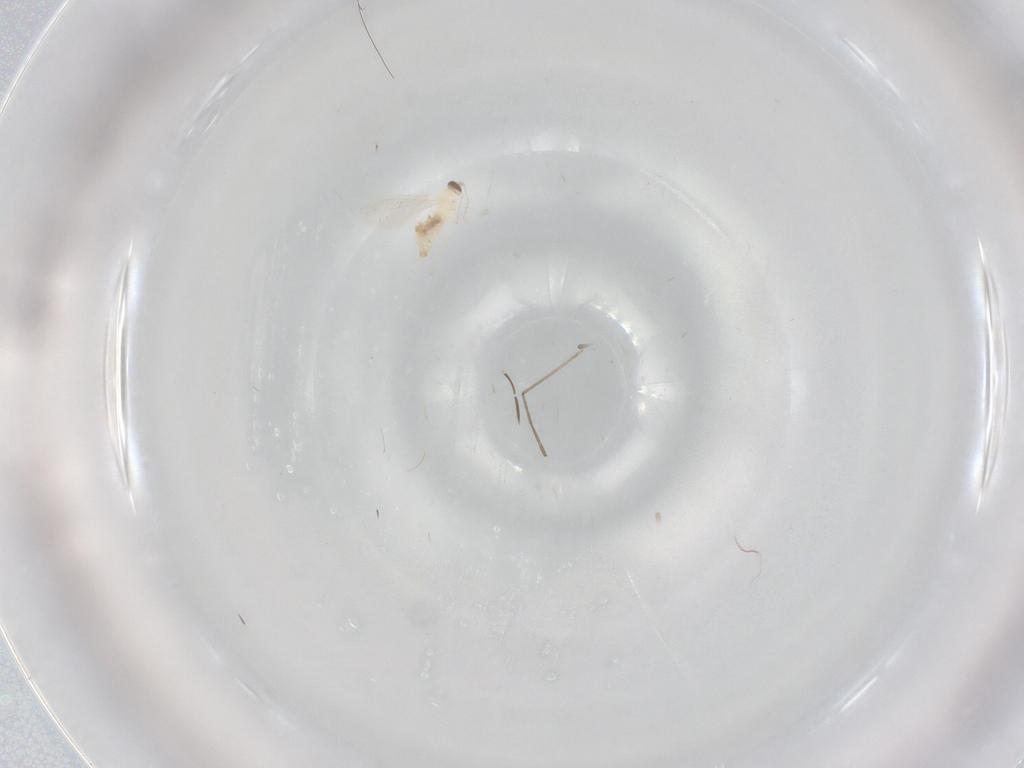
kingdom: Animalia
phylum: Arthropoda
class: Insecta
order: Diptera
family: Cecidomyiidae
